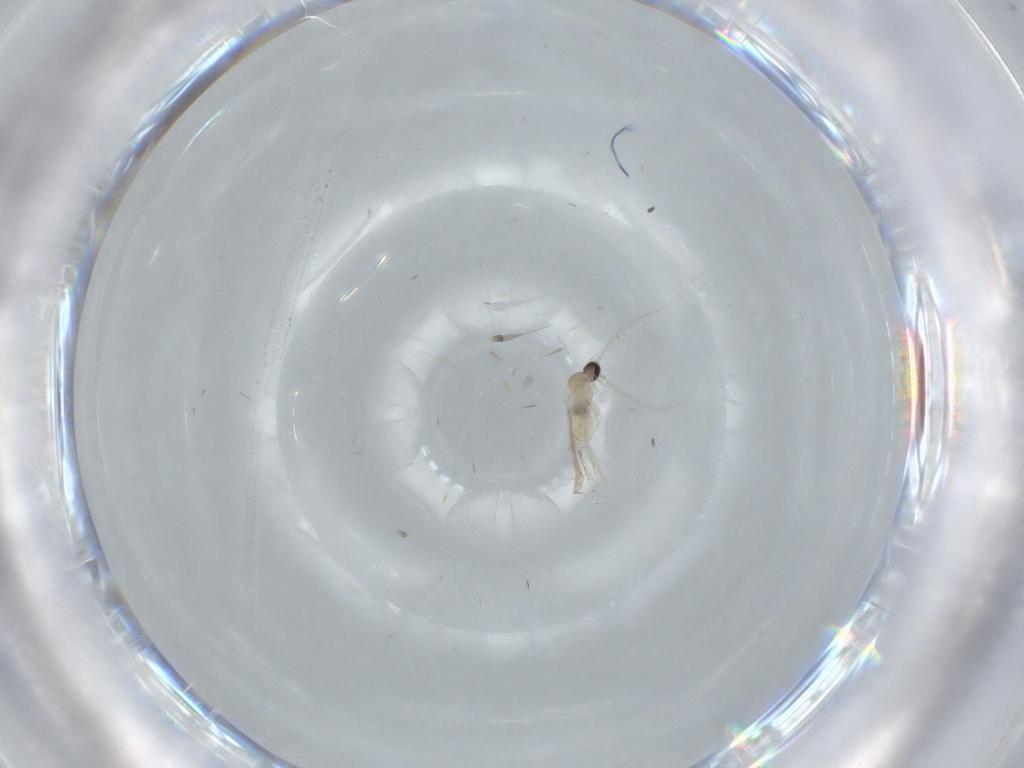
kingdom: Animalia
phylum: Arthropoda
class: Insecta
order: Diptera
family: Cecidomyiidae
